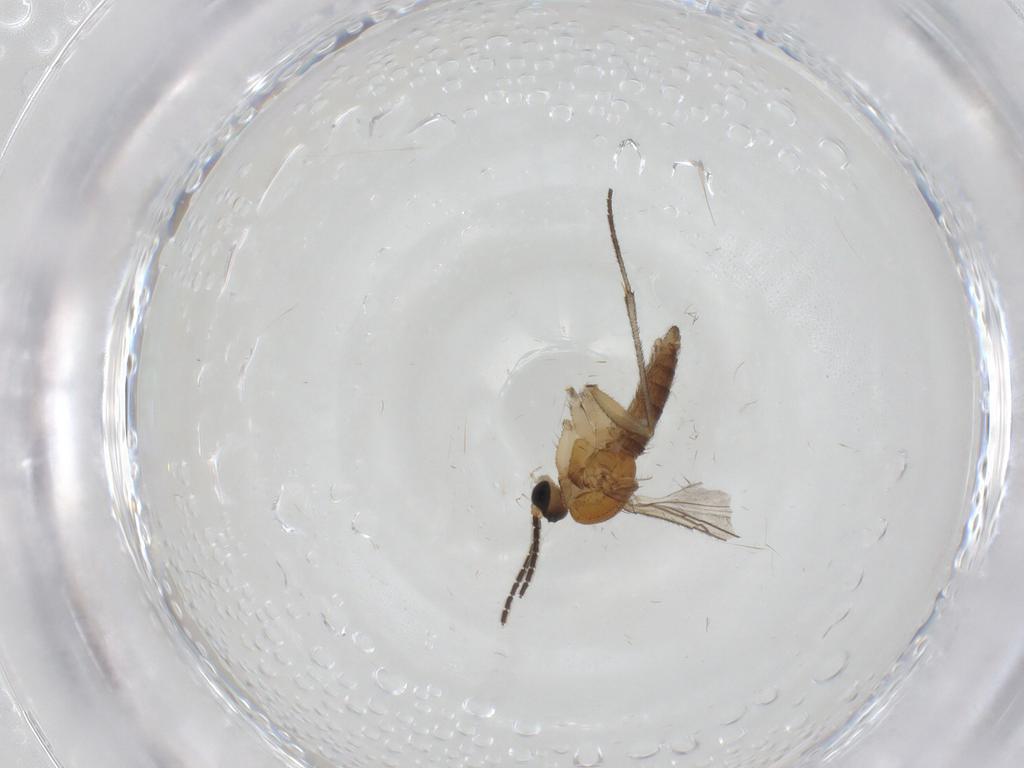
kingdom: Animalia
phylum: Arthropoda
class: Insecta
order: Diptera
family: Sciaridae
